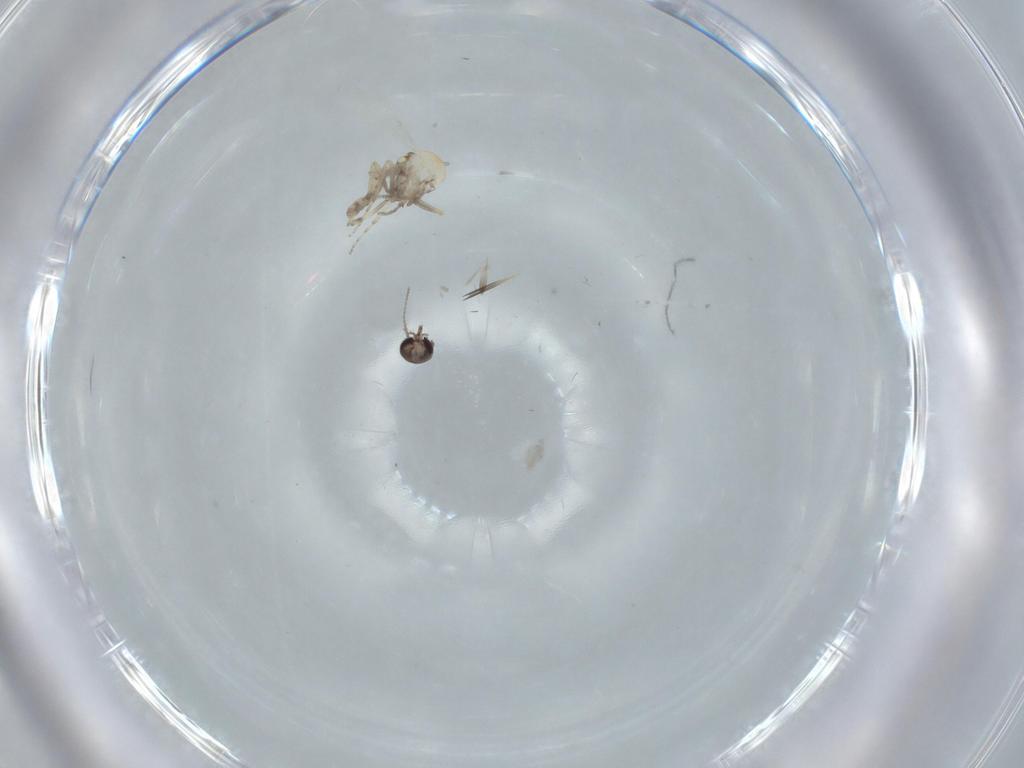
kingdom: Animalia
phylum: Arthropoda
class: Insecta
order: Diptera
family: Ceratopogonidae
